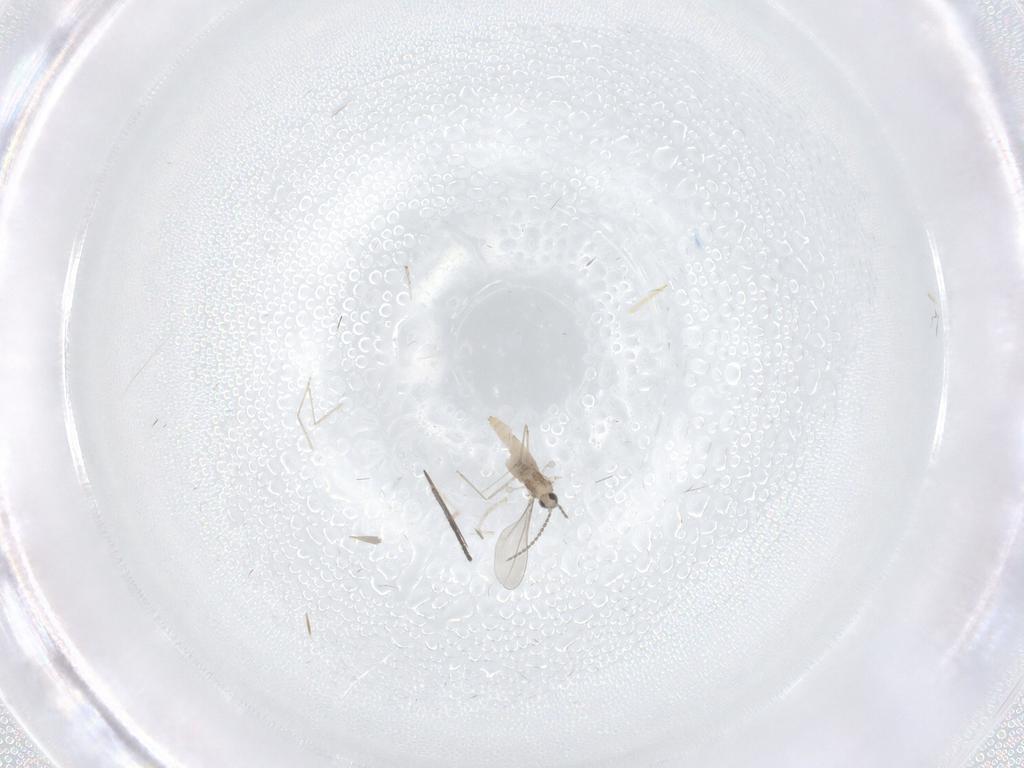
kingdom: Animalia
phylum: Arthropoda
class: Insecta
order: Diptera
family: Cecidomyiidae
